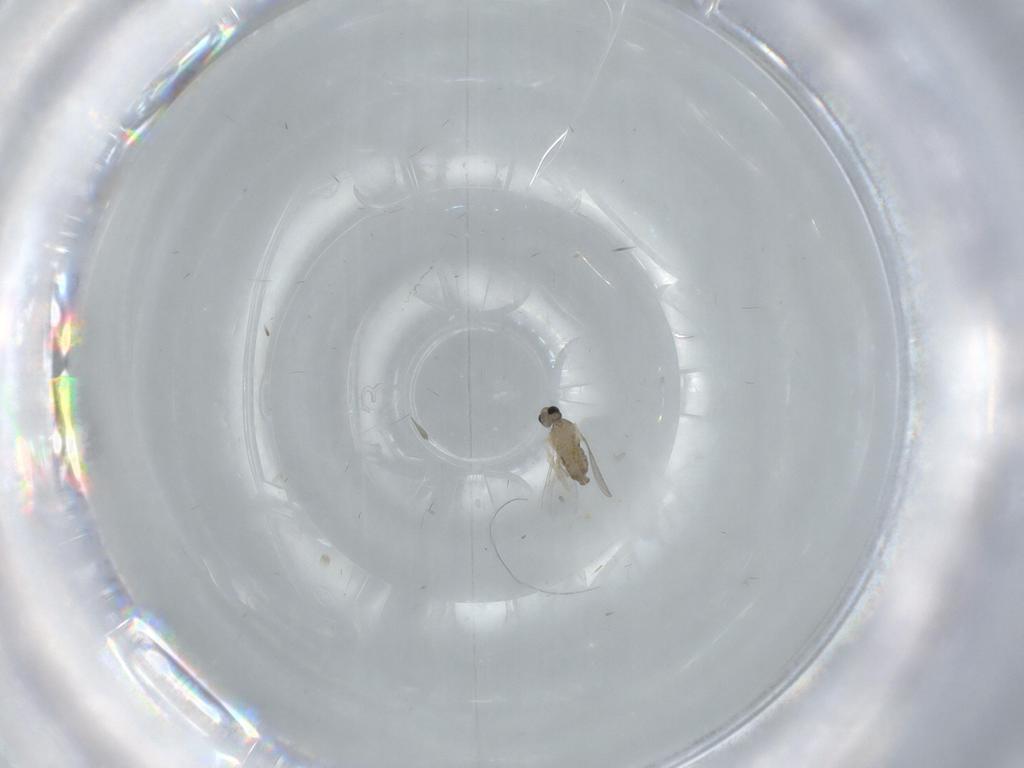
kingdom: Animalia
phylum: Arthropoda
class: Insecta
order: Diptera
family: Cecidomyiidae
